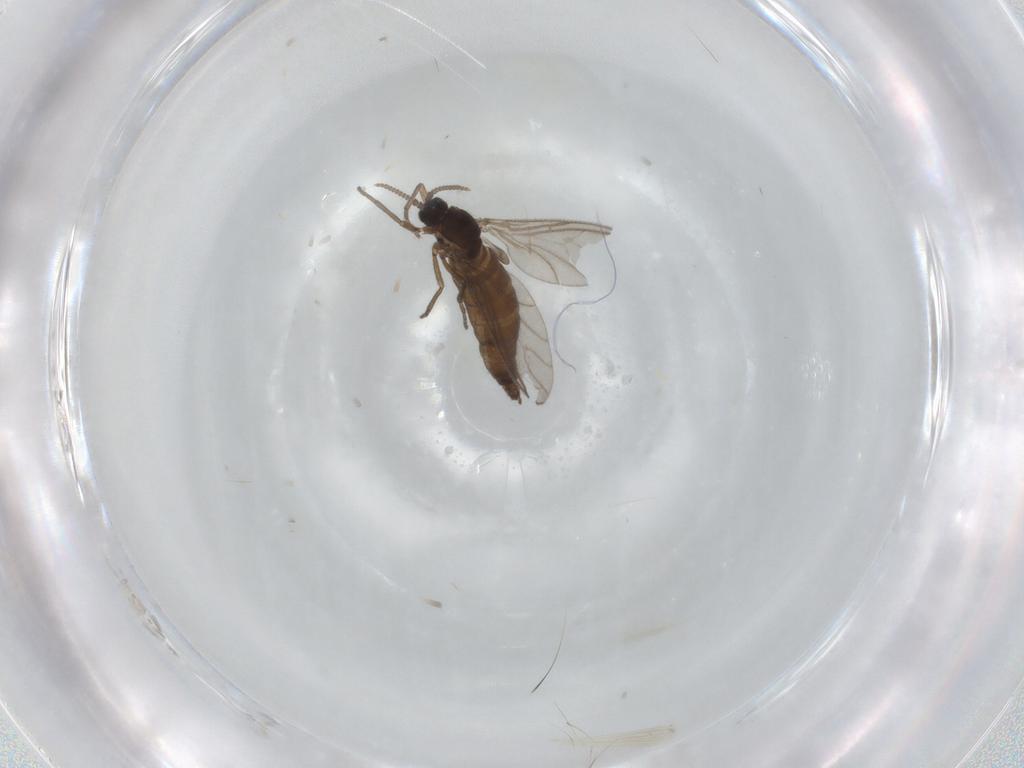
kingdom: Animalia
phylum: Arthropoda
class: Insecta
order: Diptera
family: Sciaridae
